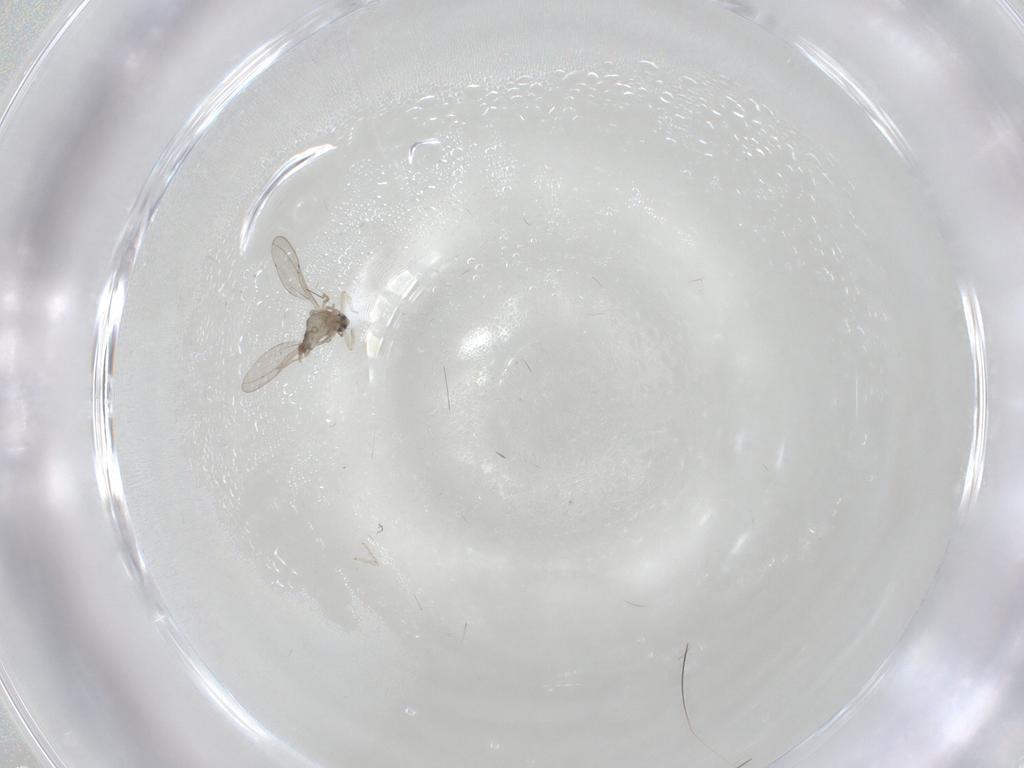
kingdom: Animalia
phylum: Arthropoda
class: Insecta
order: Diptera
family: Cecidomyiidae
